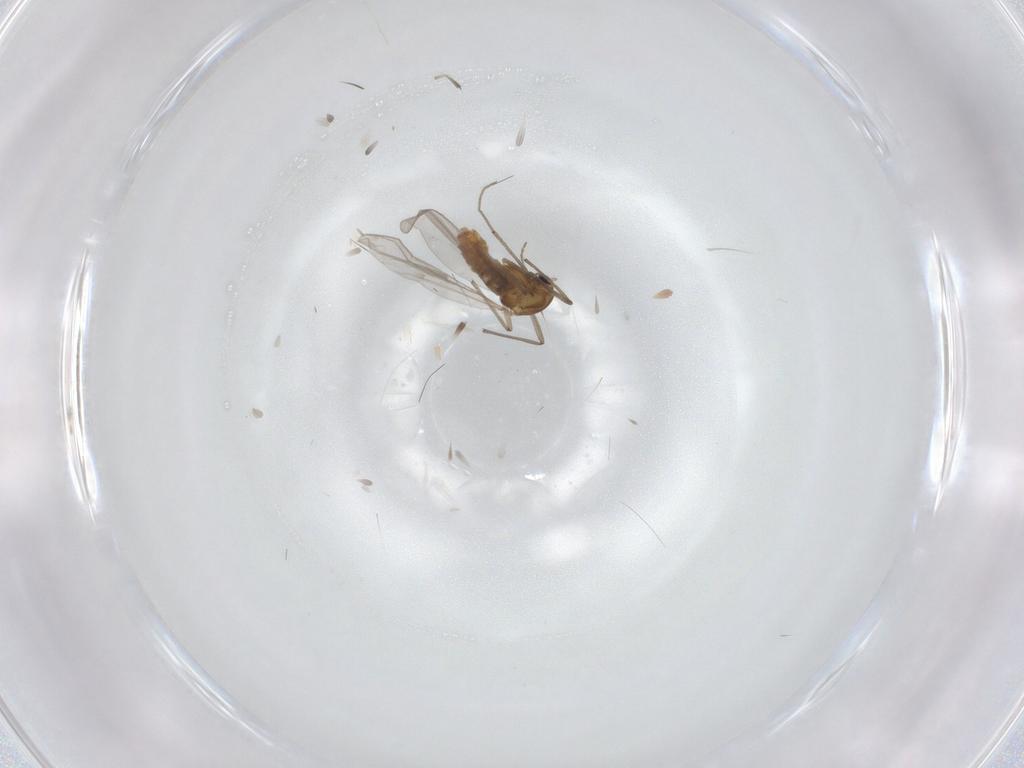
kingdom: Animalia
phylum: Arthropoda
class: Insecta
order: Diptera
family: Chironomidae
